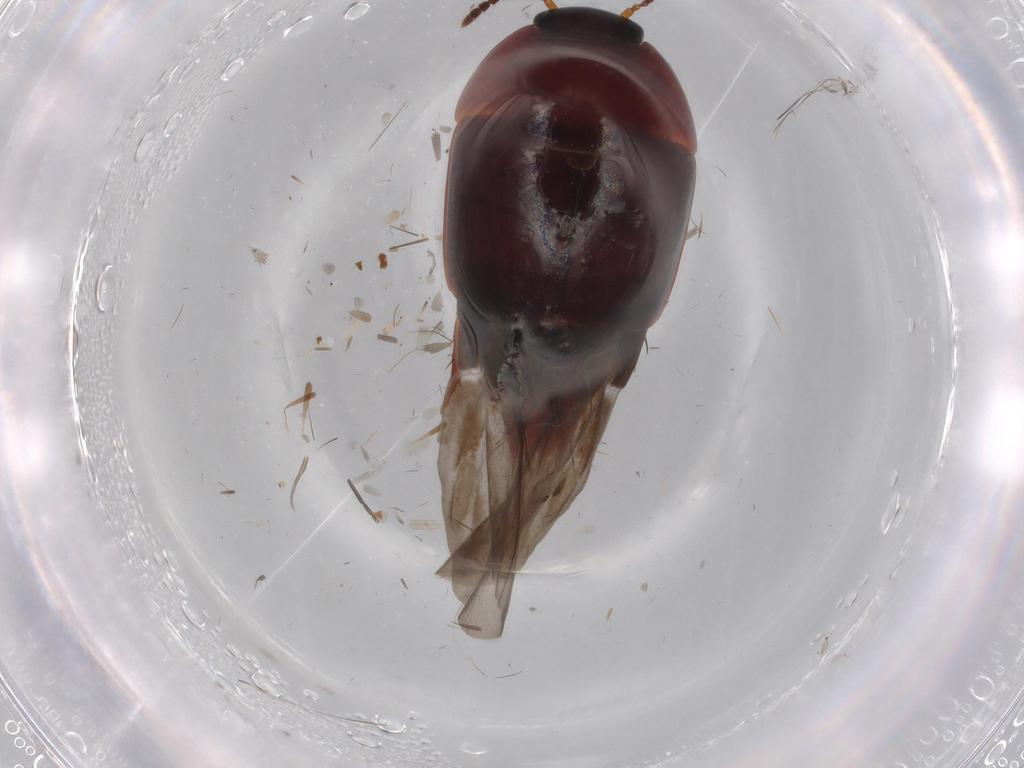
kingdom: Animalia
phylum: Arthropoda
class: Insecta
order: Coleoptera
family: Staphylinidae
